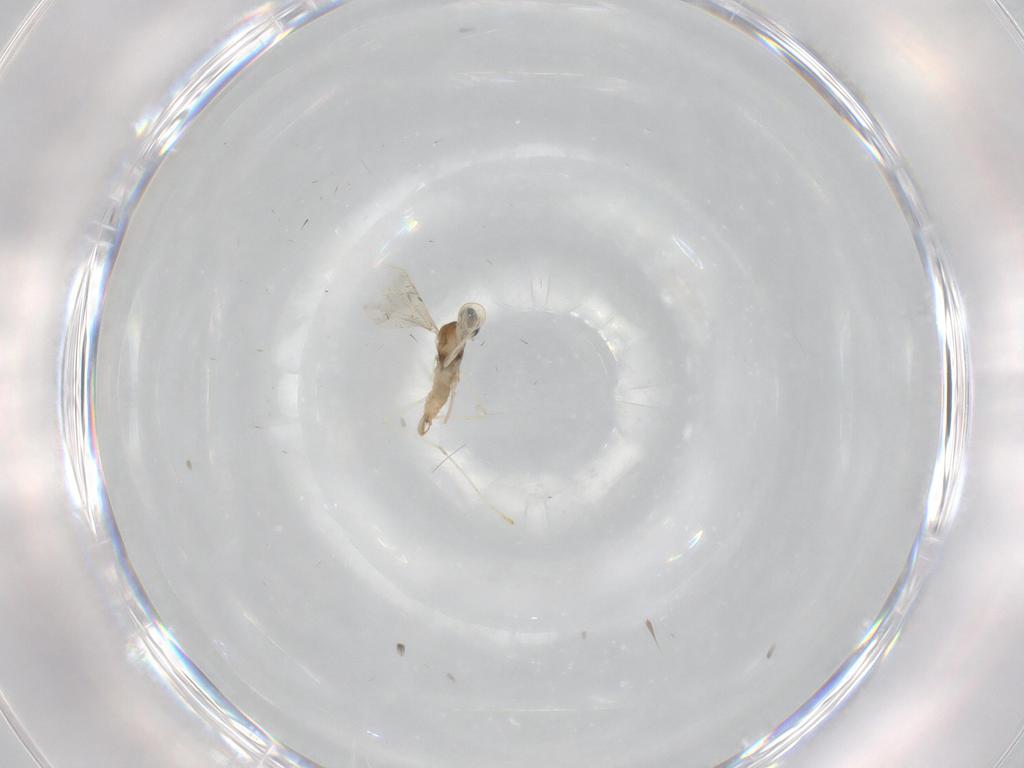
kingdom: Animalia
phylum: Arthropoda
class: Insecta
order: Diptera
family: Cecidomyiidae
